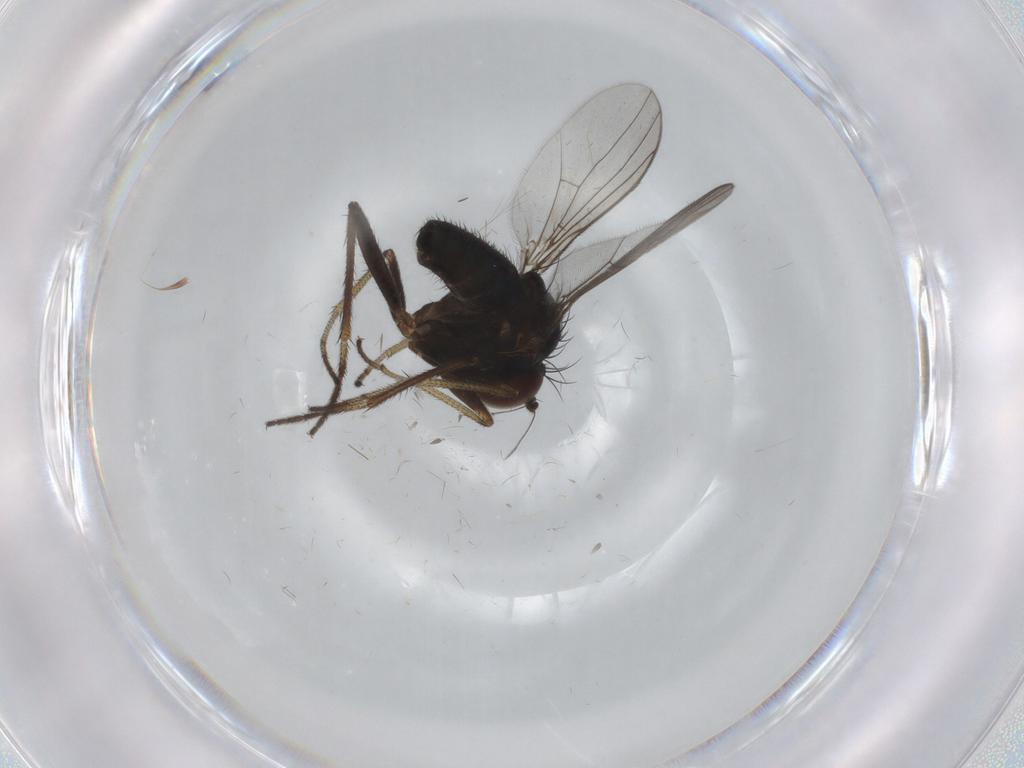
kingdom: Animalia
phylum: Arthropoda
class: Insecta
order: Diptera
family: Dolichopodidae
